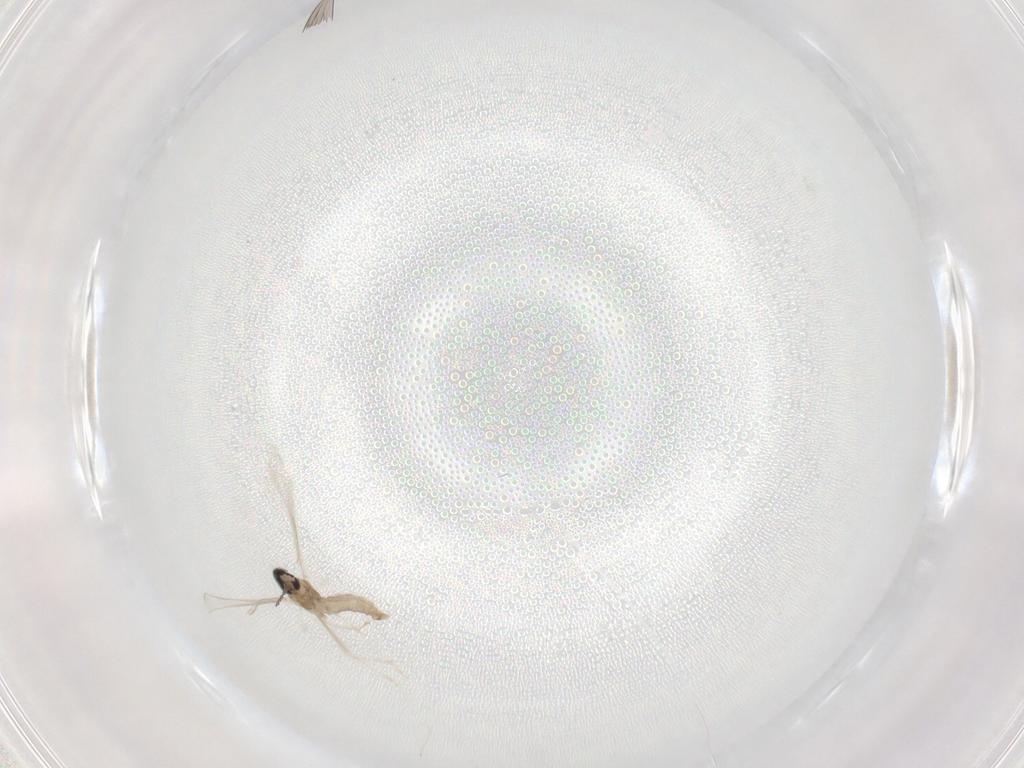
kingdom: Animalia
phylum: Arthropoda
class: Insecta
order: Diptera
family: Cecidomyiidae
